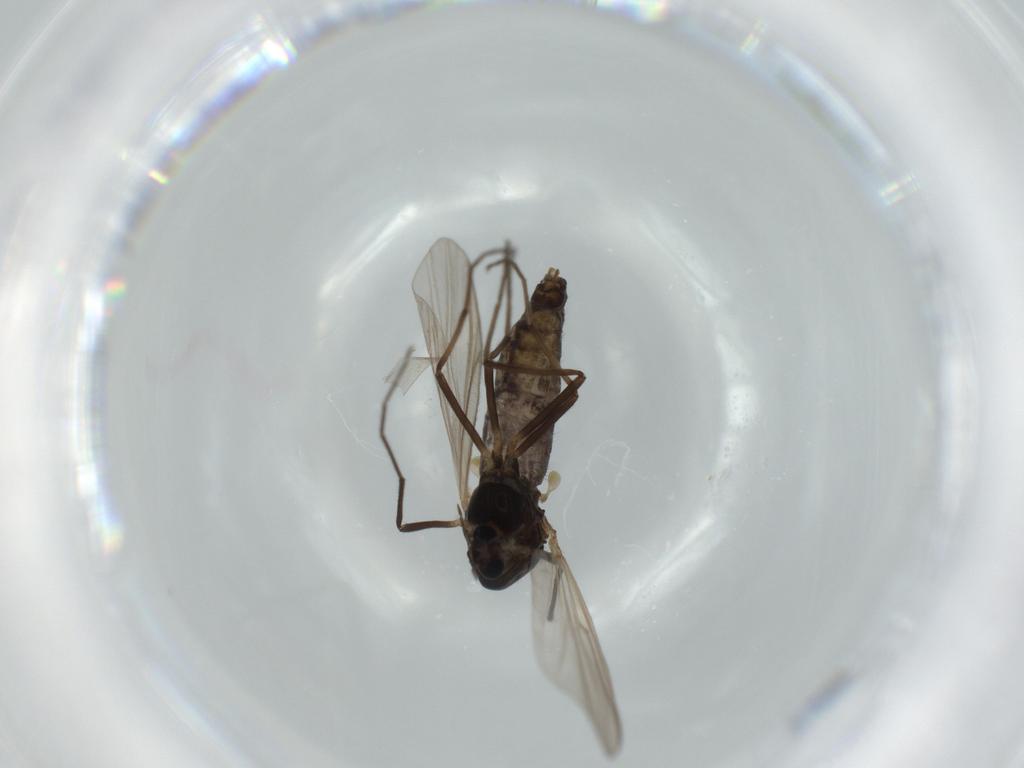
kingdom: Animalia
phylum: Arthropoda
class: Insecta
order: Diptera
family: Chironomidae
